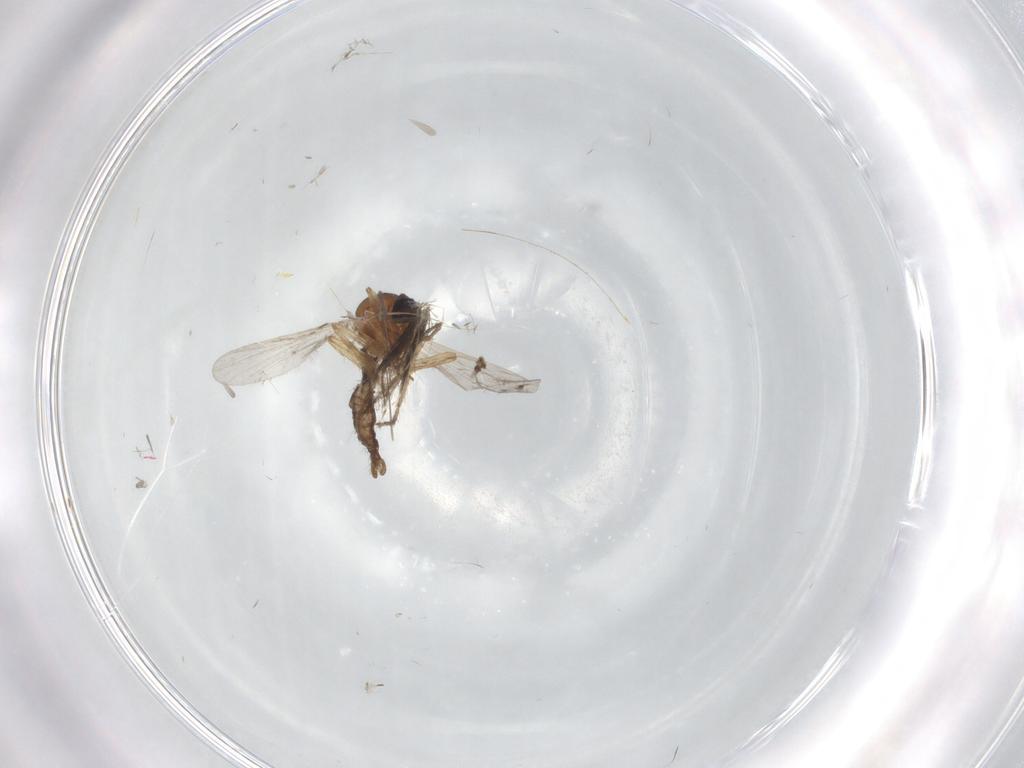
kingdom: Animalia
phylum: Arthropoda
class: Insecta
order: Diptera
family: Ceratopogonidae
